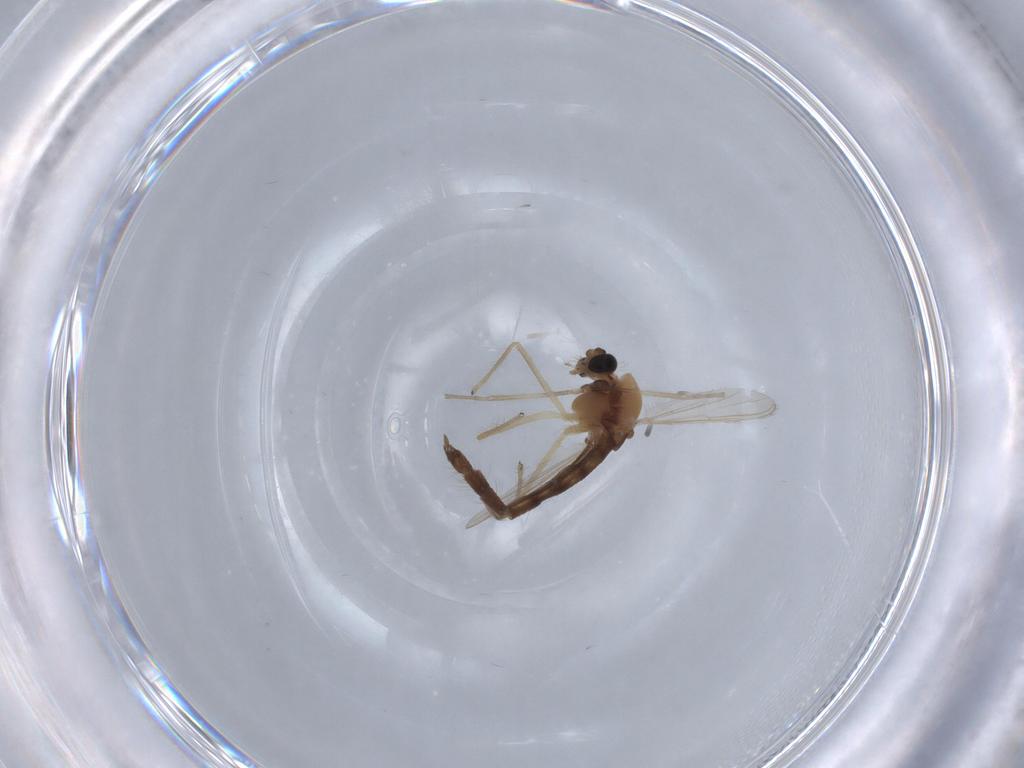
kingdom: Animalia
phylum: Arthropoda
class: Insecta
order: Diptera
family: Chironomidae
